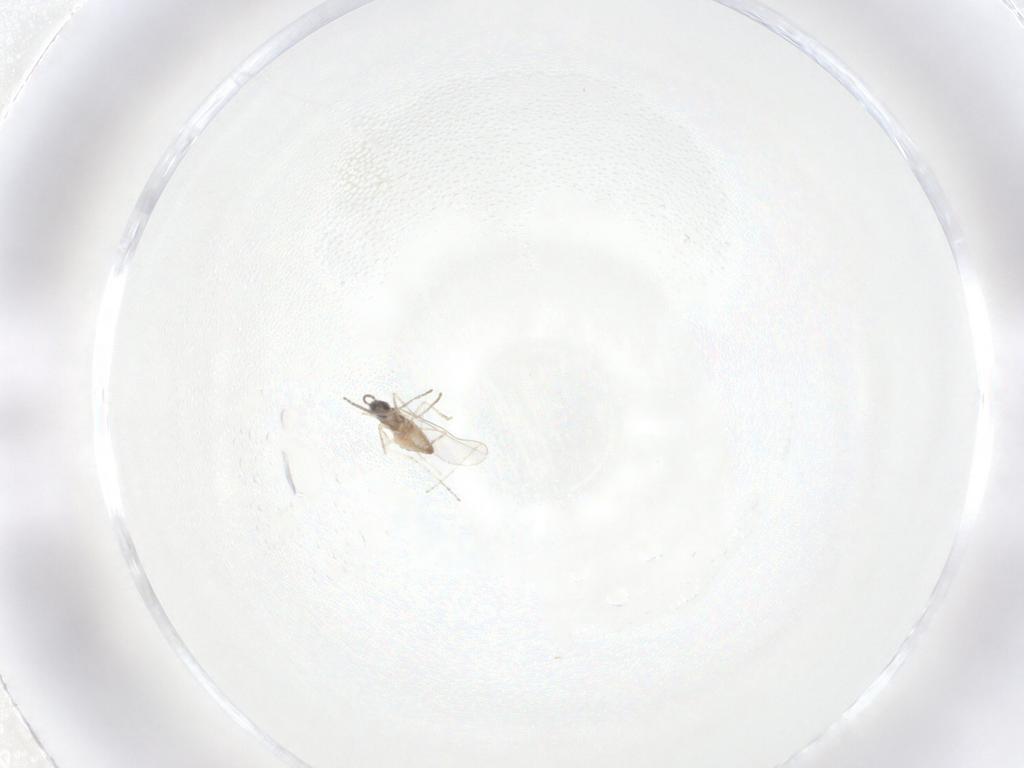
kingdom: Animalia
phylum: Arthropoda
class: Insecta
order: Diptera
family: Cecidomyiidae
